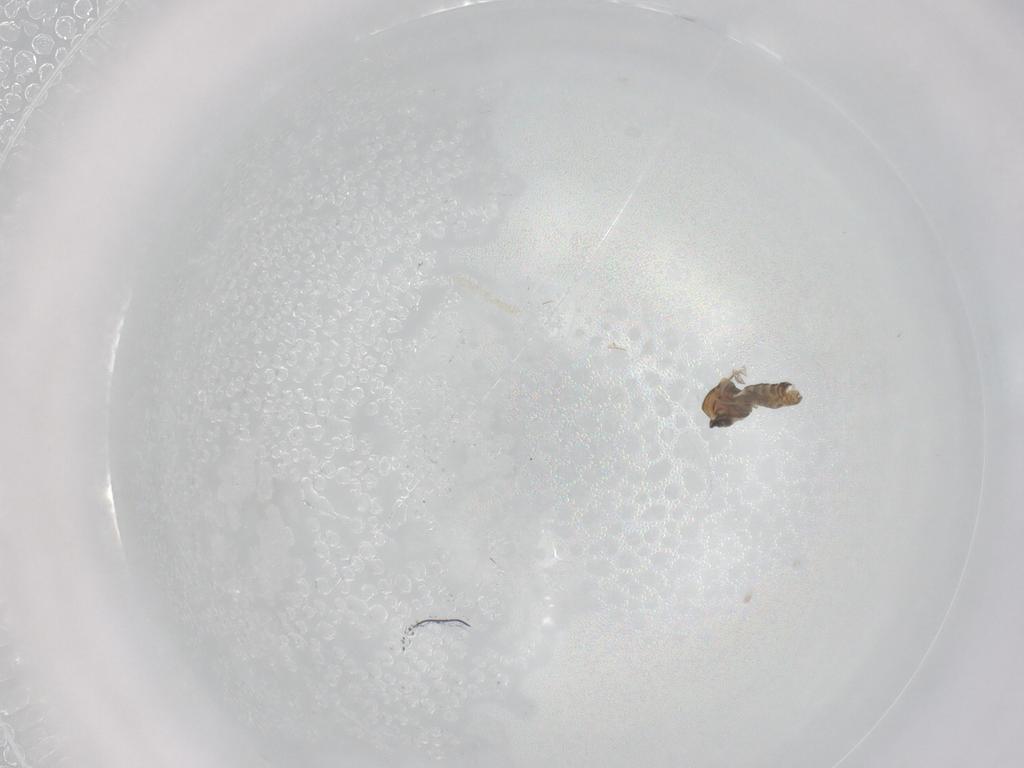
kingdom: Animalia
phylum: Arthropoda
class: Insecta
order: Diptera
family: Ceratopogonidae
